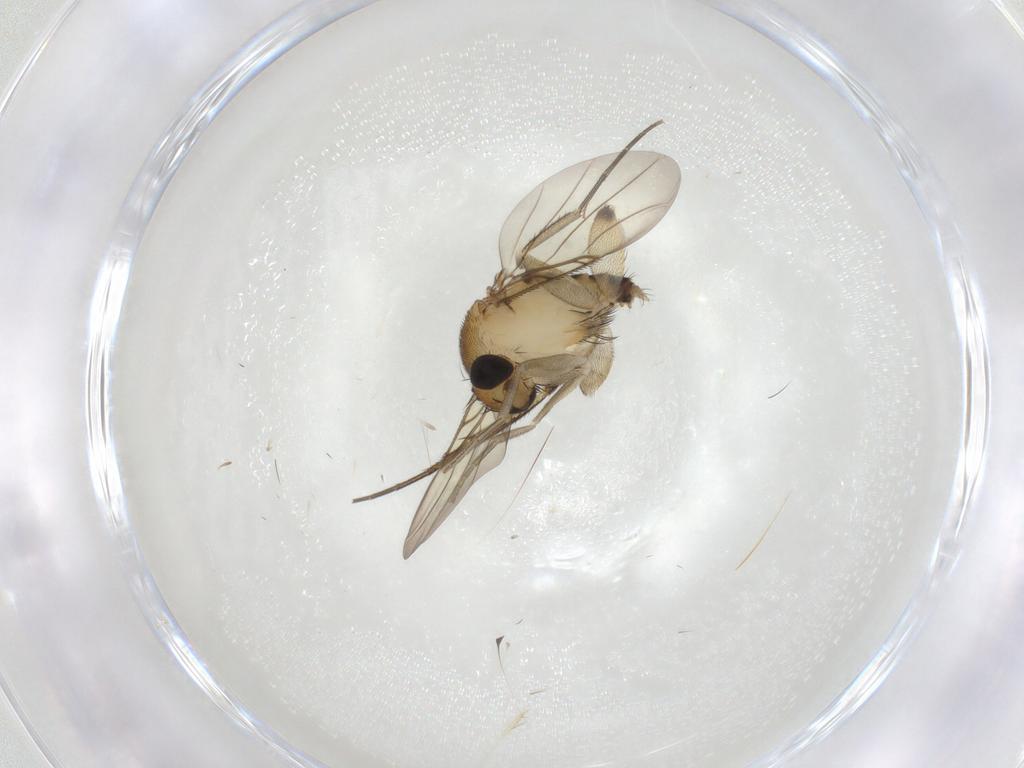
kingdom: Animalia
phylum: Arthropoda
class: Insecta
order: Diptera
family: Phoridae
